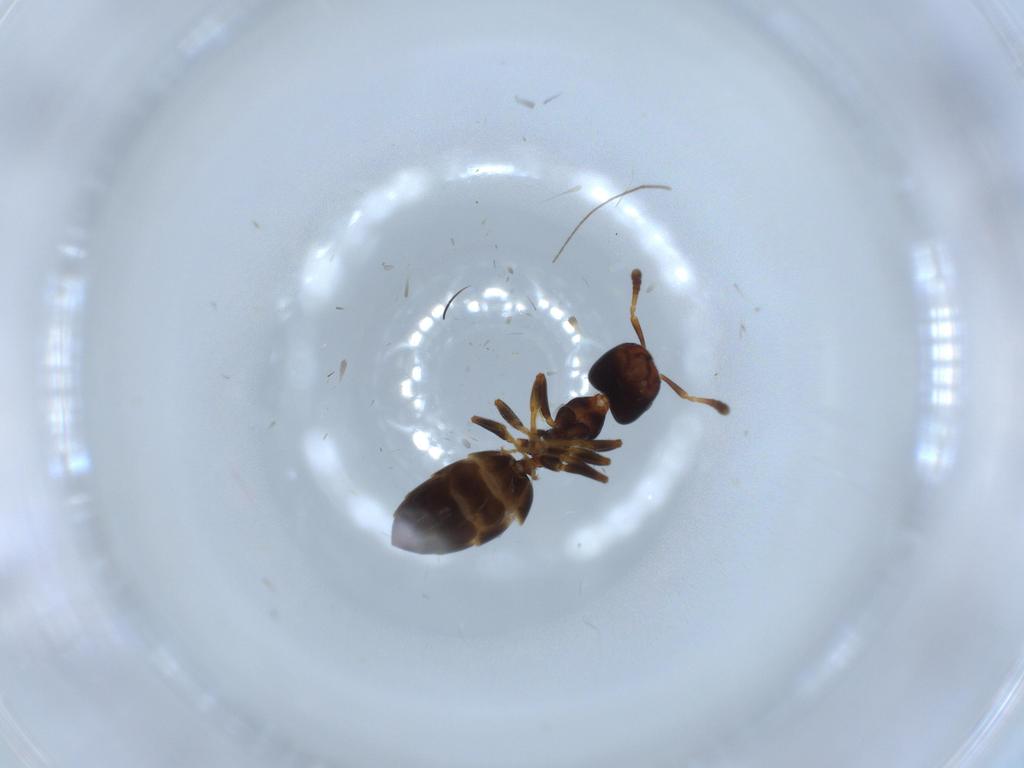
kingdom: Animalia
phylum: Arthropoda
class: Insecta
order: Hymenoptera
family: Formicidae
